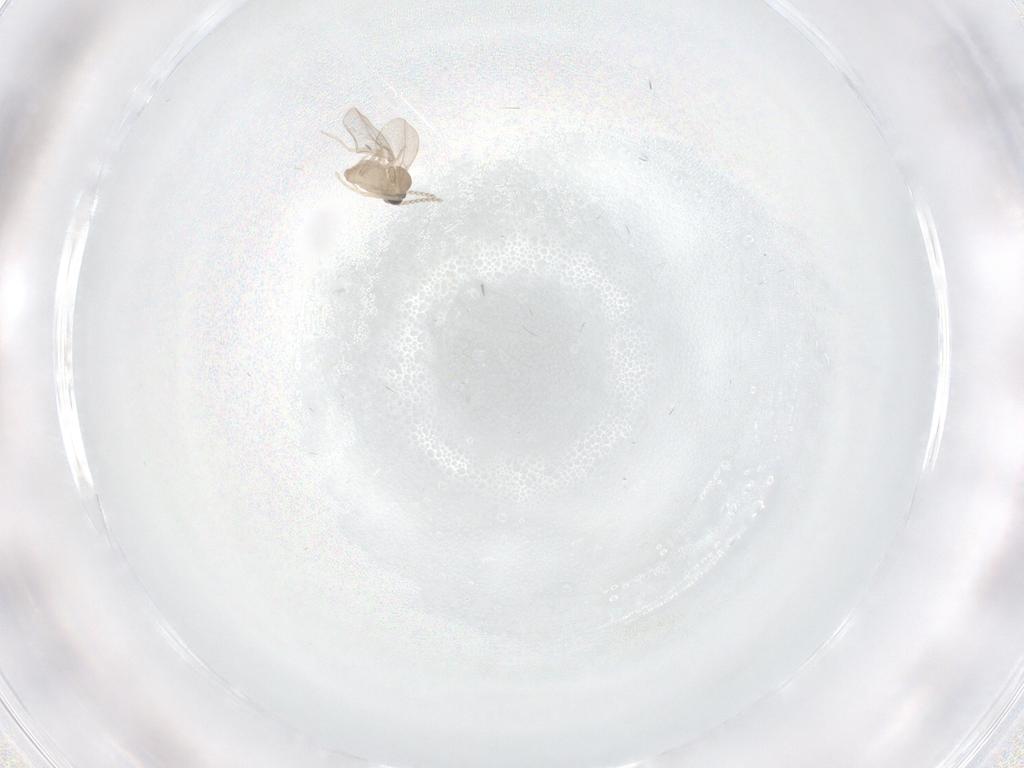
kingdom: Animalia
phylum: Arthropoda
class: Insecta
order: Diptera
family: Cecidomyiidae
